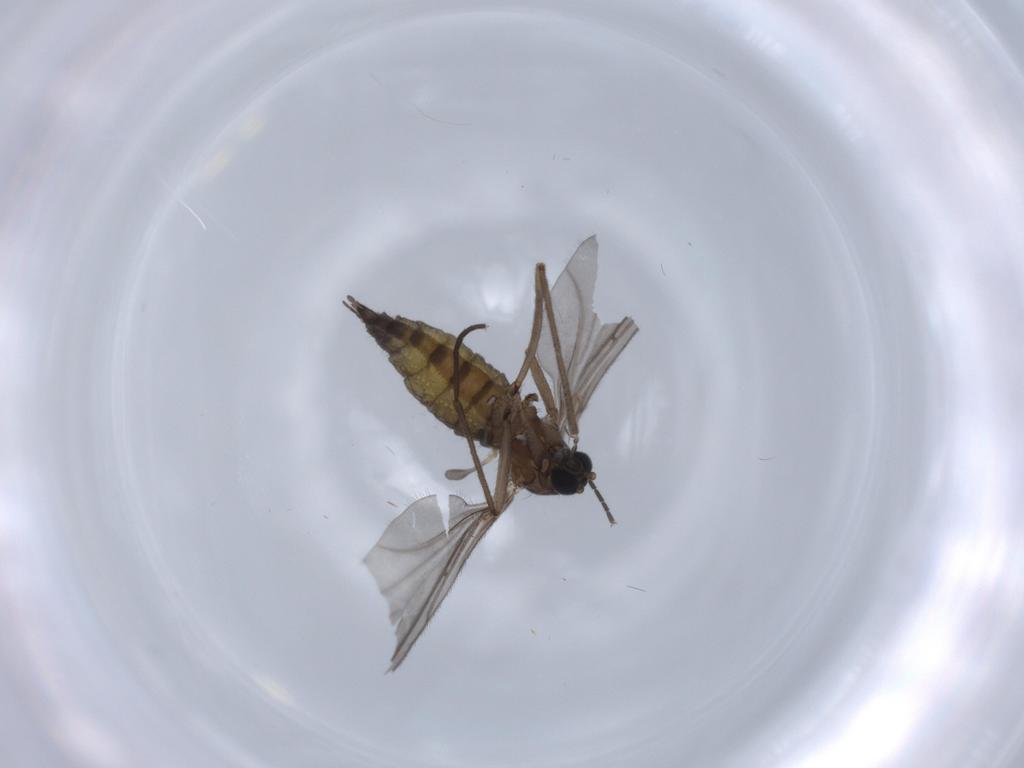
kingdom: Animalia
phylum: Arthropoda
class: Insecta
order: Diptera
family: Sciaridae
